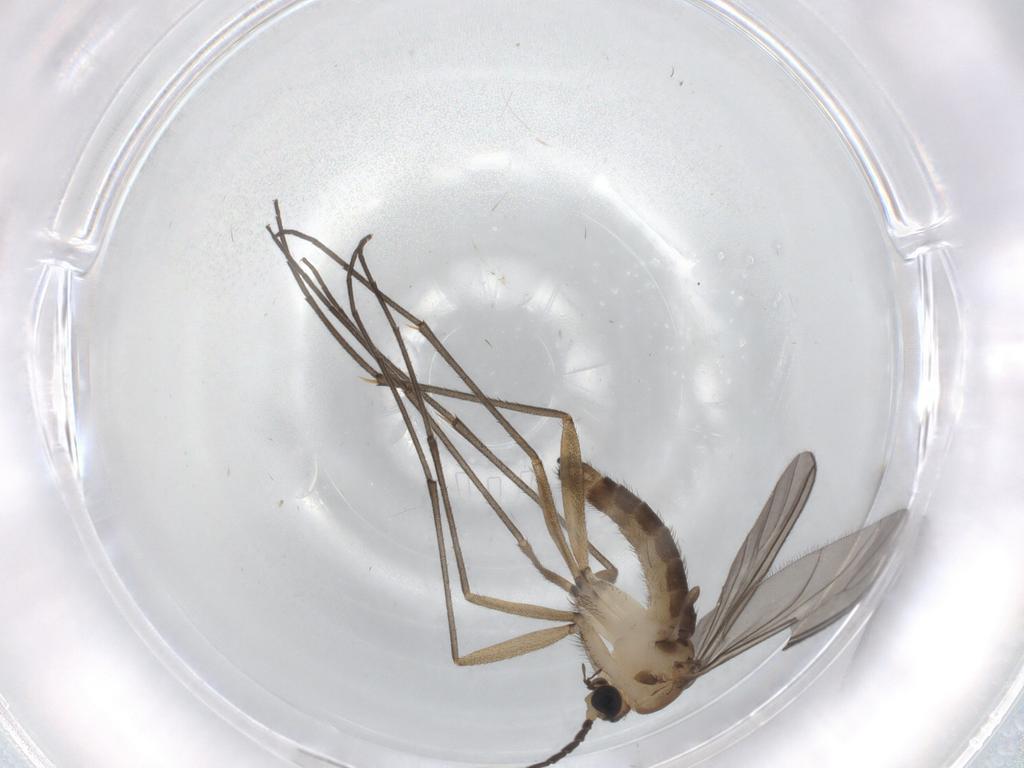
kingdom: Animalia
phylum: Arthropoda
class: Insecta
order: Diptera
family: Sciaridae
